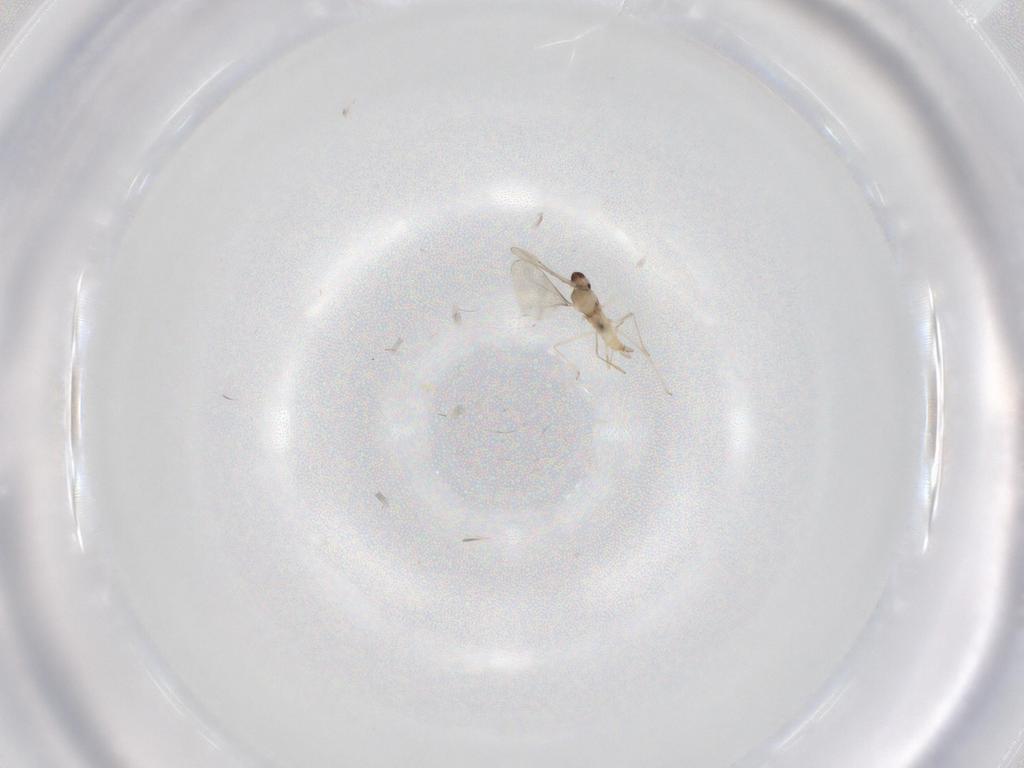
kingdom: Animalia
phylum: Arthropoda
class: Insecta
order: Diptera
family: Cecidomyiidae
